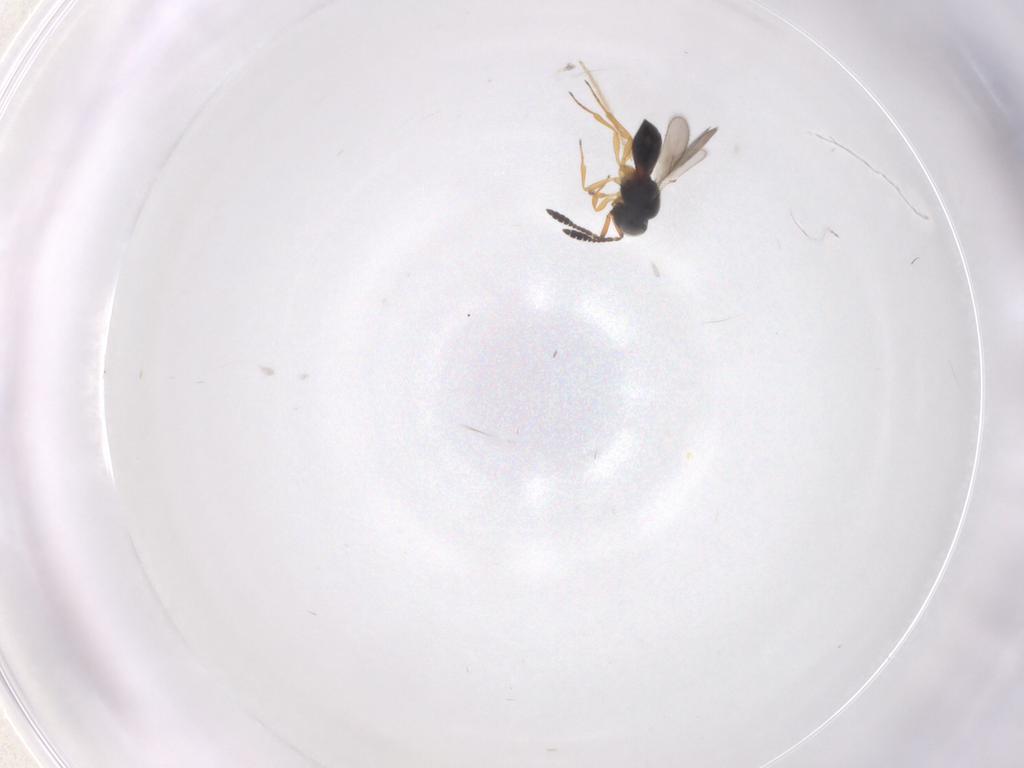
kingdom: Animalia
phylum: Arthropoda
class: Insecta
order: Hymenoptera
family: Scelionidae
